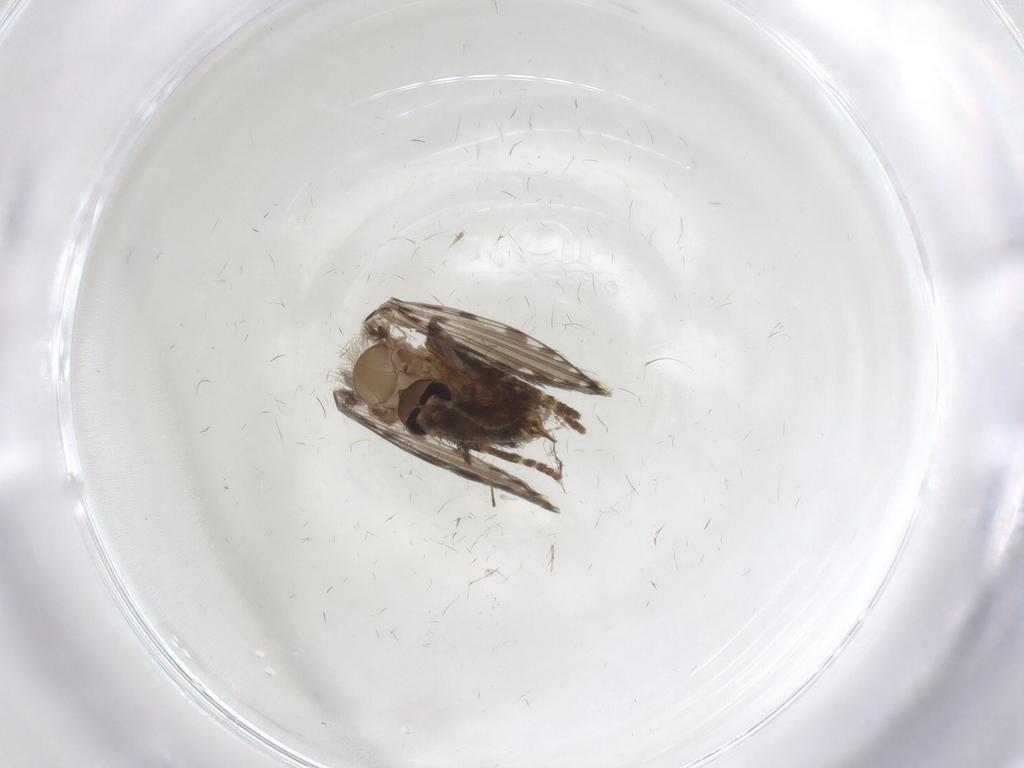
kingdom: Animalia
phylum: Arthropoda
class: Insecta
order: Diptera
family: Psychodidae
